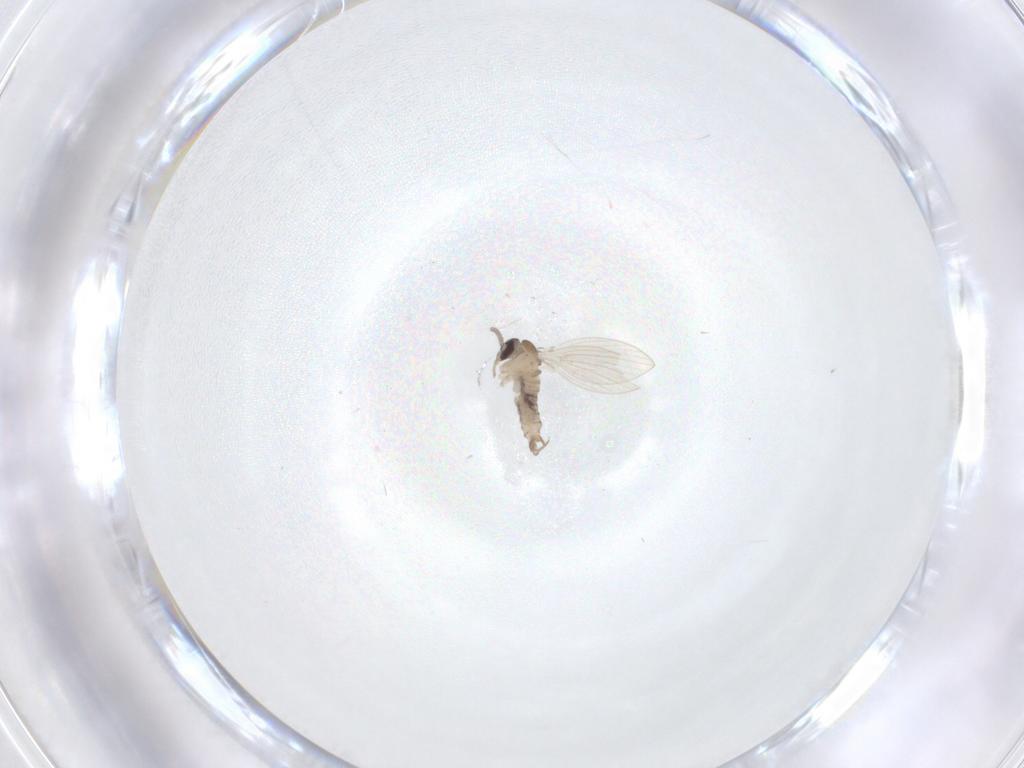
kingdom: Animalia
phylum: Arthropoda
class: Insecta
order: Diptera
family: Psychodidae
